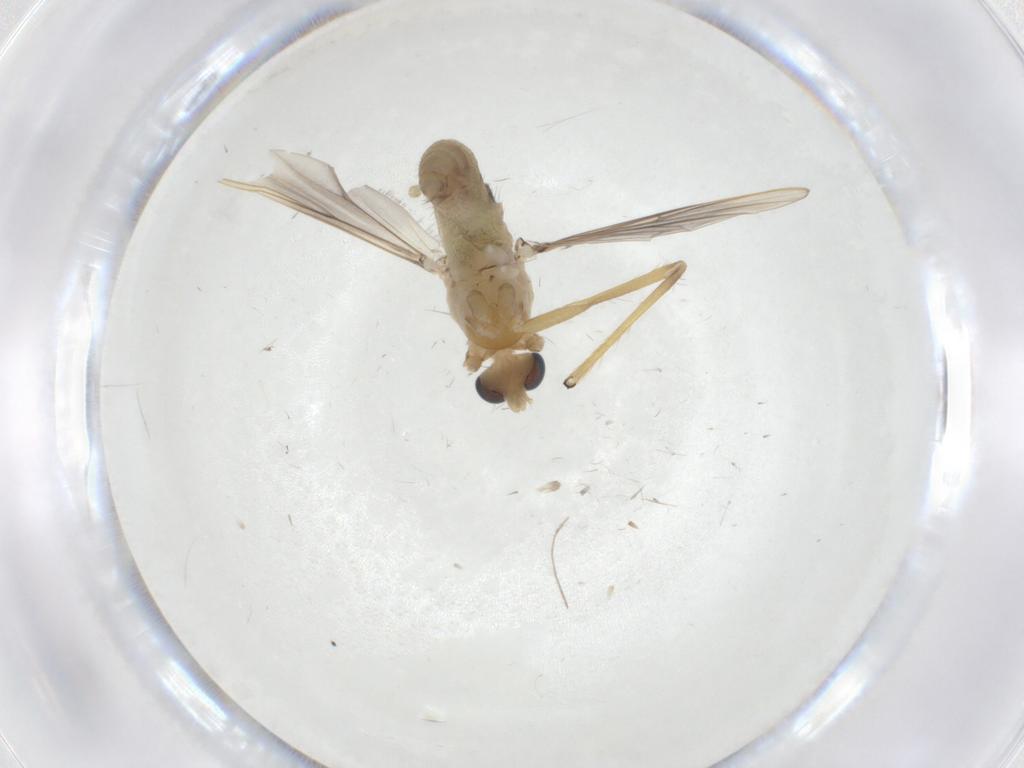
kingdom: Animalia
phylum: Arthropoda
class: Insecta
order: Diptera
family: Chironomidae
